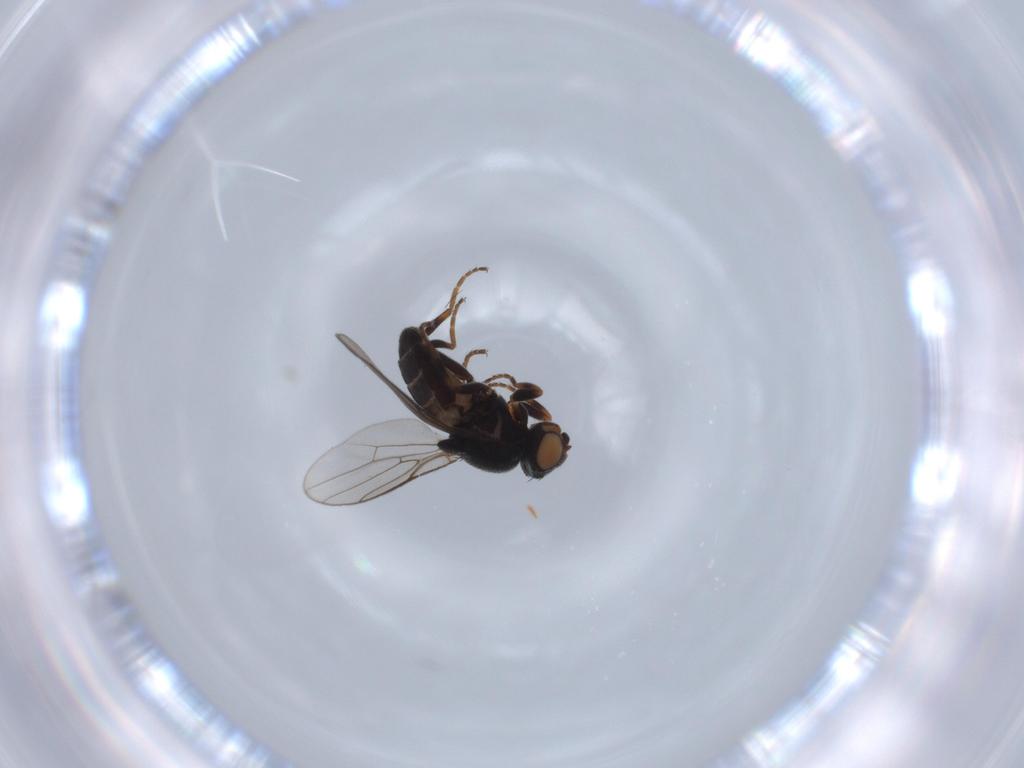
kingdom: Animalia
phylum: Arthropoda
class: Insecta
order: Diptera
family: Chloropidae
